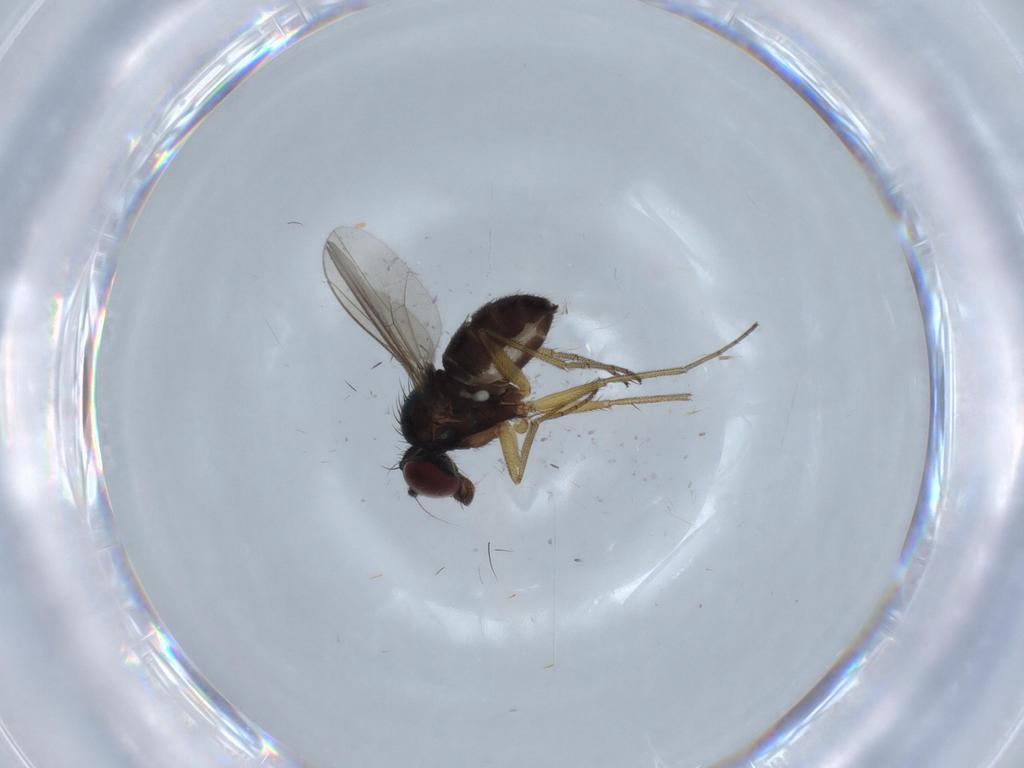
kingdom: Animalia
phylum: Arthropoda
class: Insecta
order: Diptera
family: Dolichopodidae
